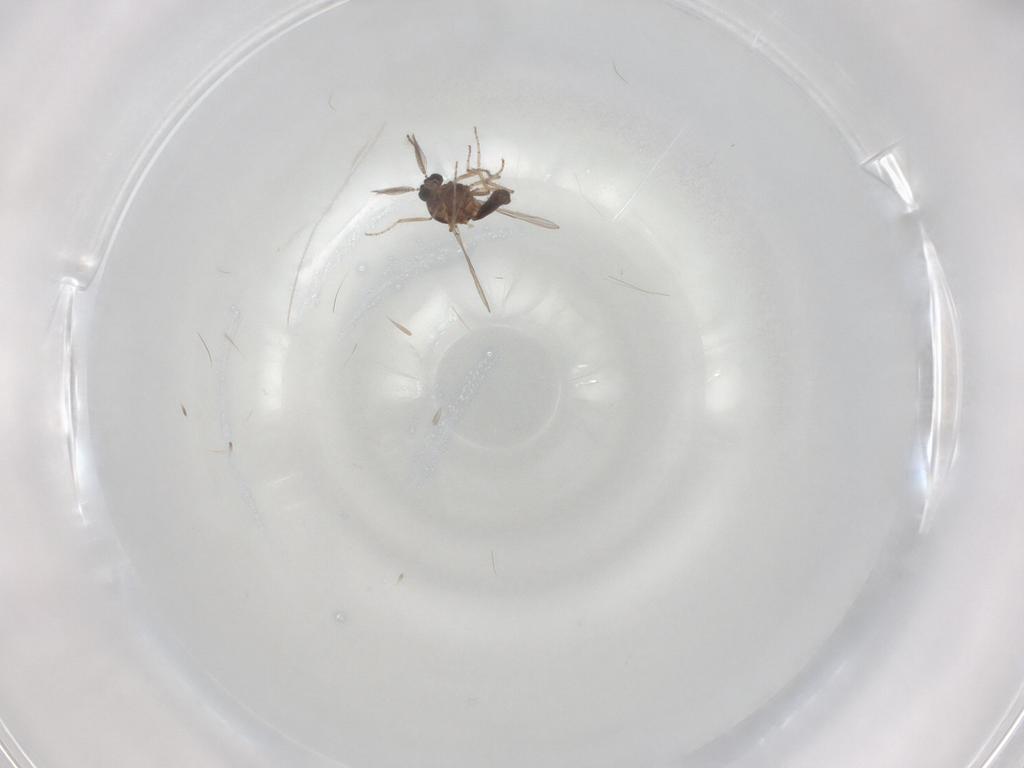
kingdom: Animalia
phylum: Arthropoda
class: Insecta
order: Diptera
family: Ceratopogonidae
